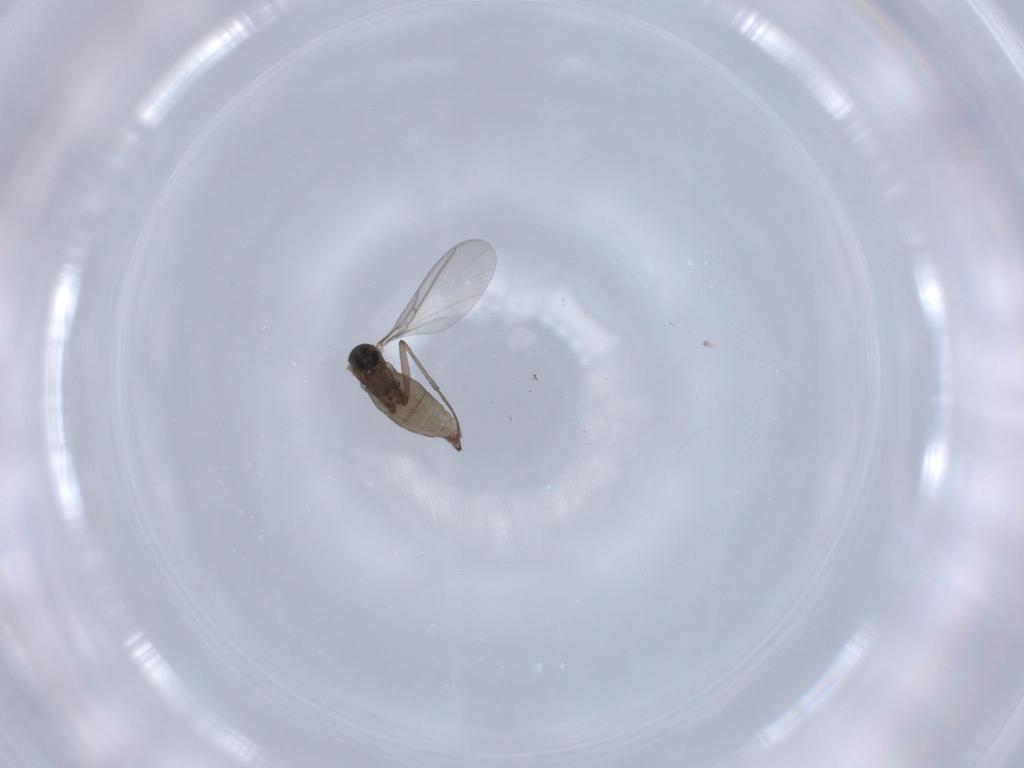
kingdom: Animalia
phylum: Arthropoda
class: Insecta
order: Diptera
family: Sciaridae
